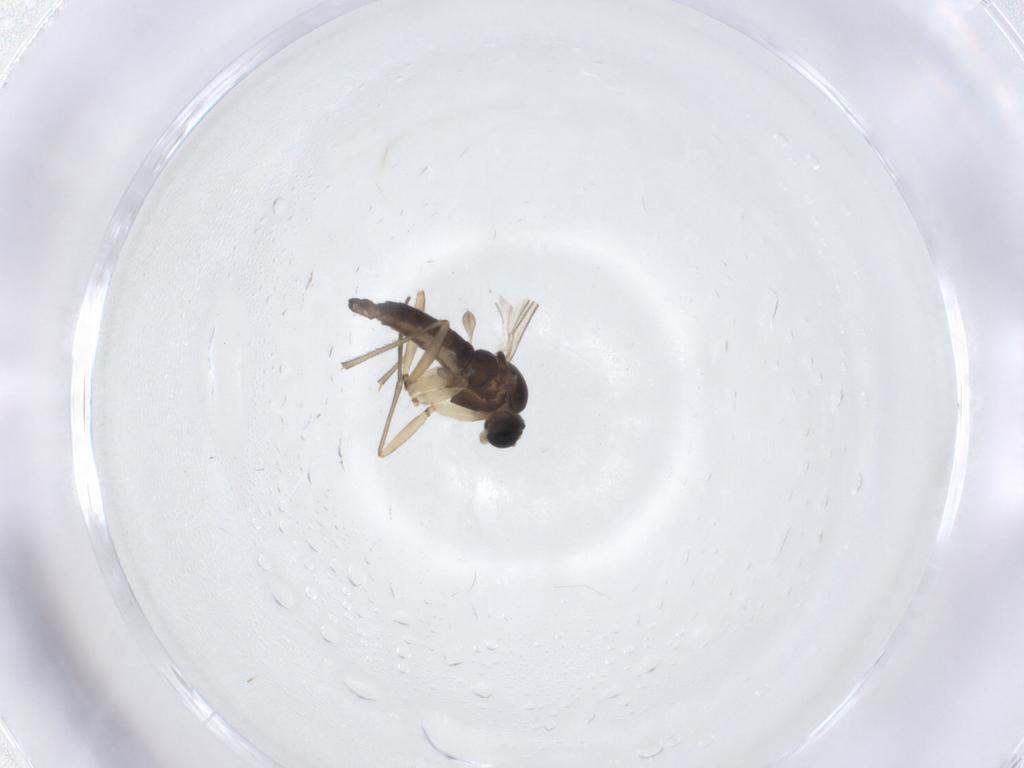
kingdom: Animalia
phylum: Arthropoda
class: Insecta
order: Diptera
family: Sciaridae
